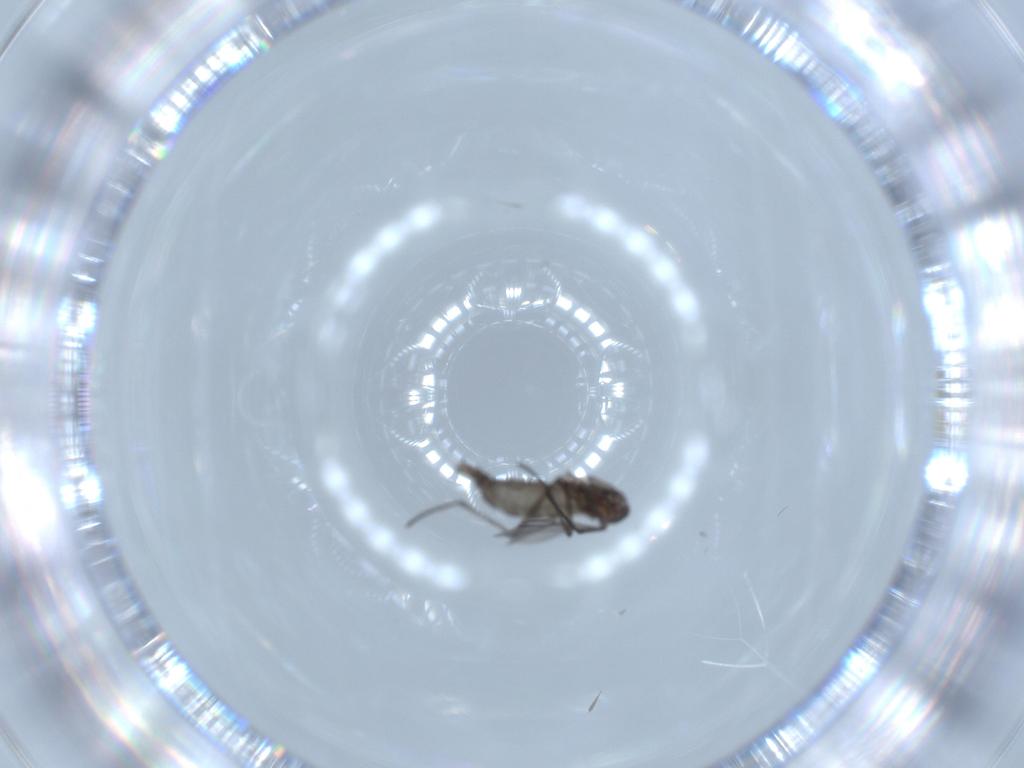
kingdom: Animalia
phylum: Arthropoda
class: Insecta
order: Diptera
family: Sciaridae
